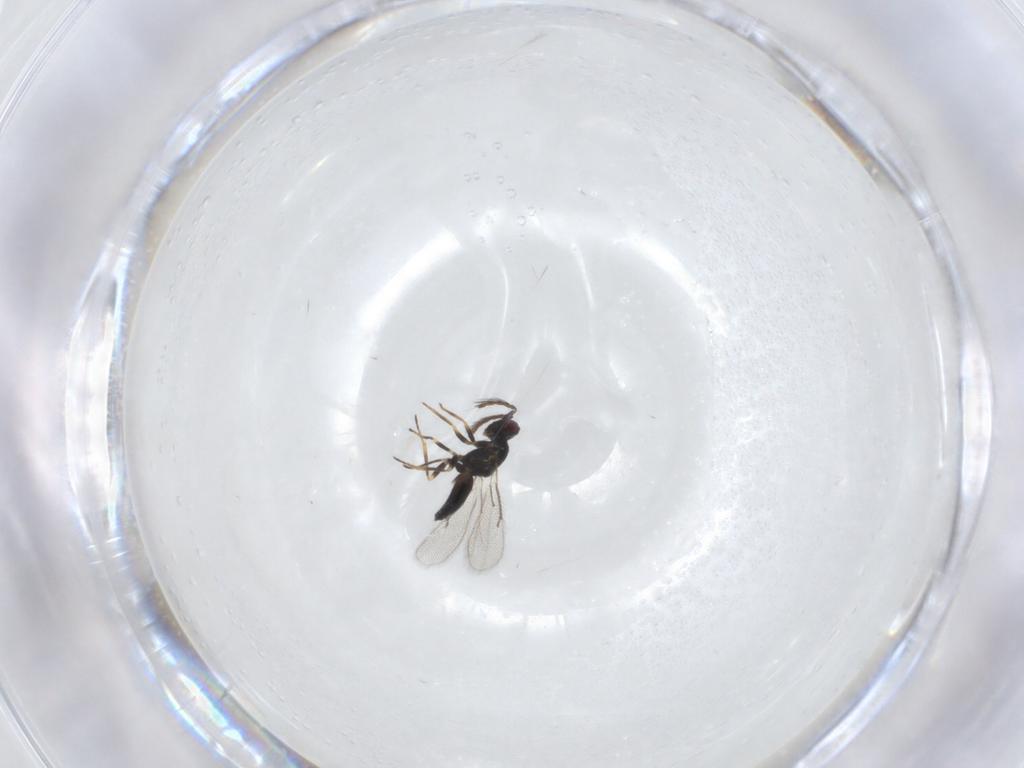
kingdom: Animalia
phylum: Arthropoda
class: Insecta
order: Hymenoptera
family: Eulophidae
